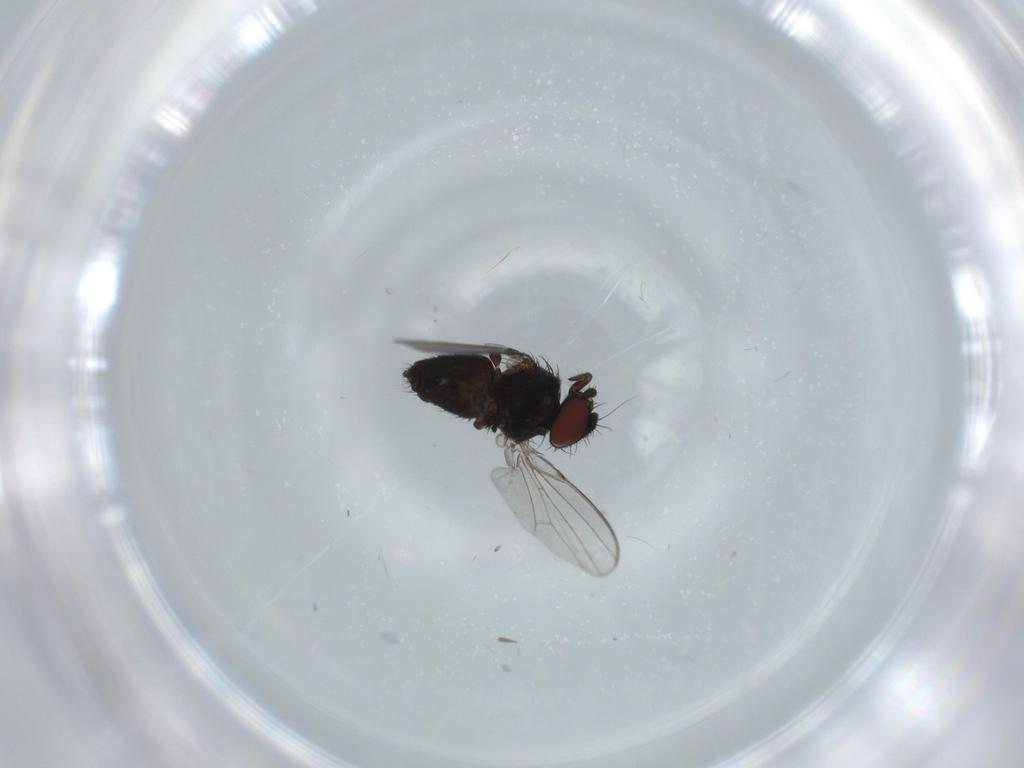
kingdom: Animalia
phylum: Arthropoda
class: Insecta
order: Diptera
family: Milichiidae
